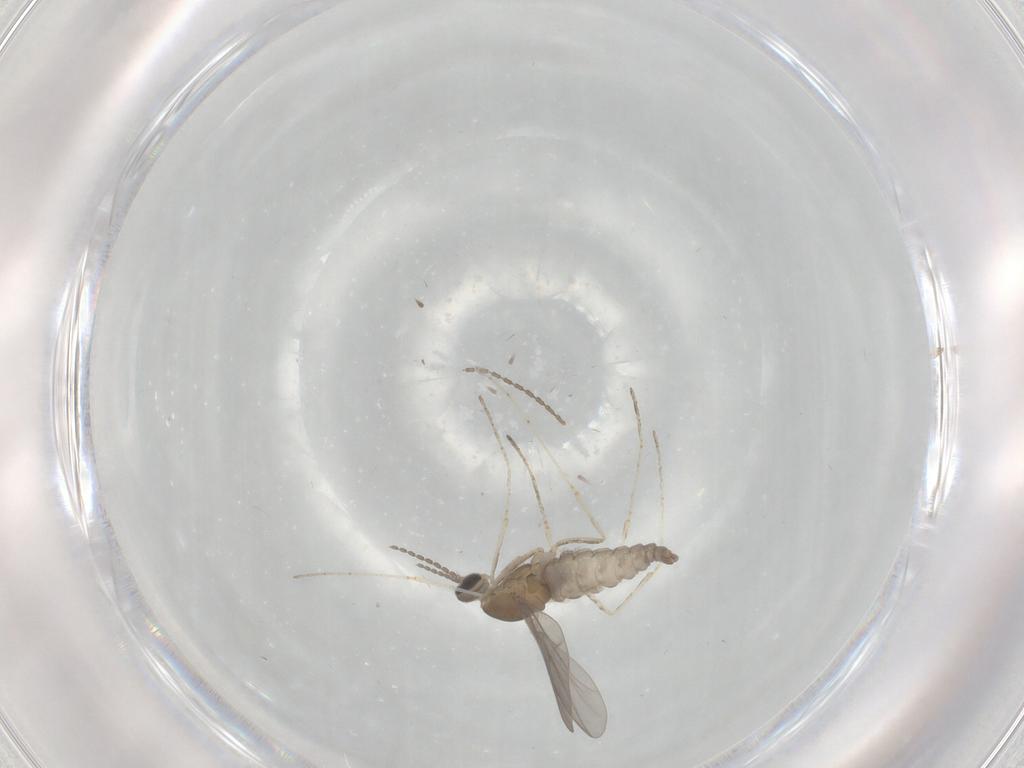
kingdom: Animalia
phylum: Arthropoda
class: Insecta
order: Diptera
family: Cecidomyiidae
